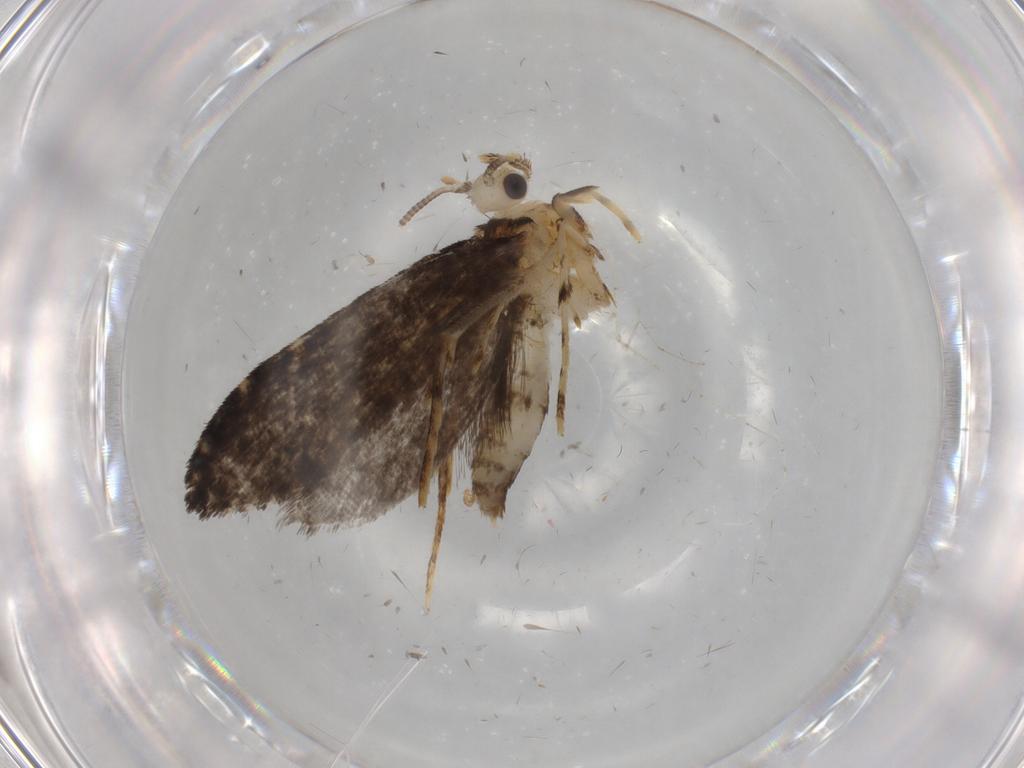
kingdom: Animalia
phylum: Arthropoda
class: Insecta
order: Lepidoptera
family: Tineidae
